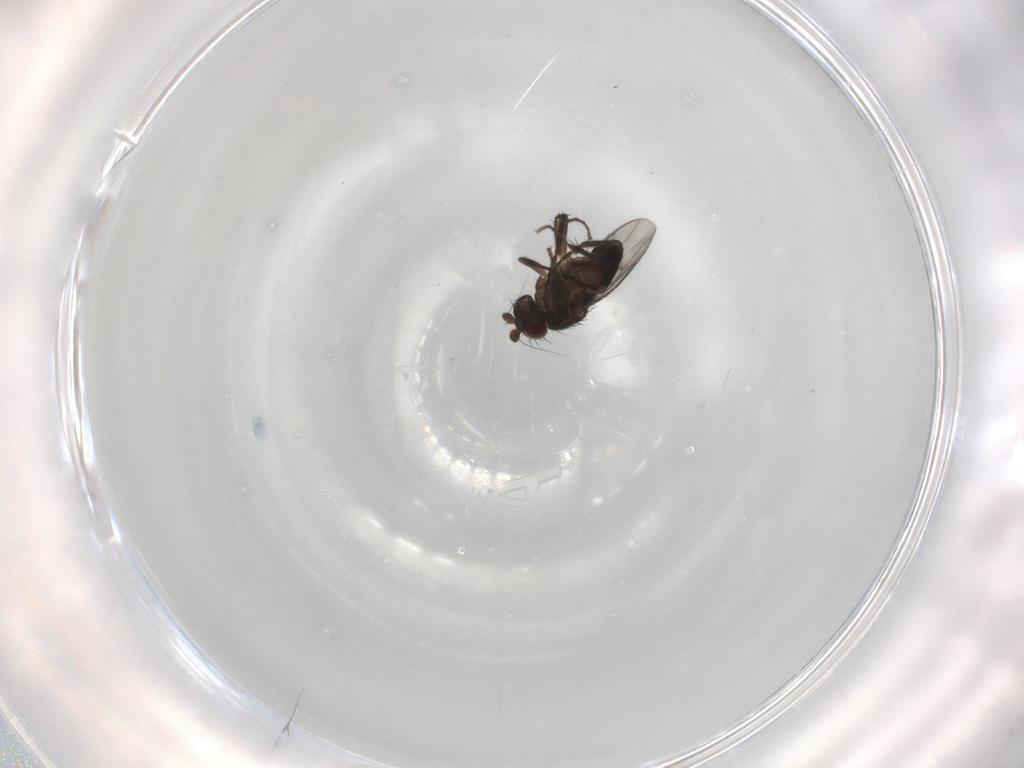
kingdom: Animalia
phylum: Arthropoda
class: Insecta
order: Diptera
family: Sphaeroceridae
